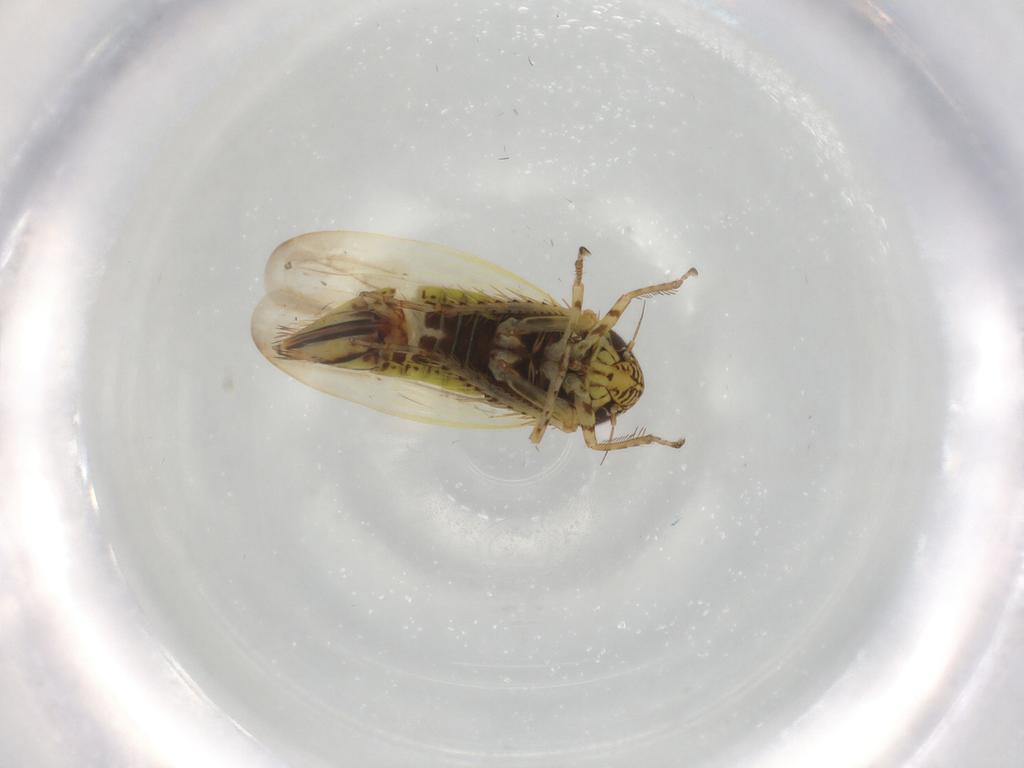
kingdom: Animalia
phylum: Arthropoda
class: Insecta
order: Hemiptera
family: Cicadellidae
